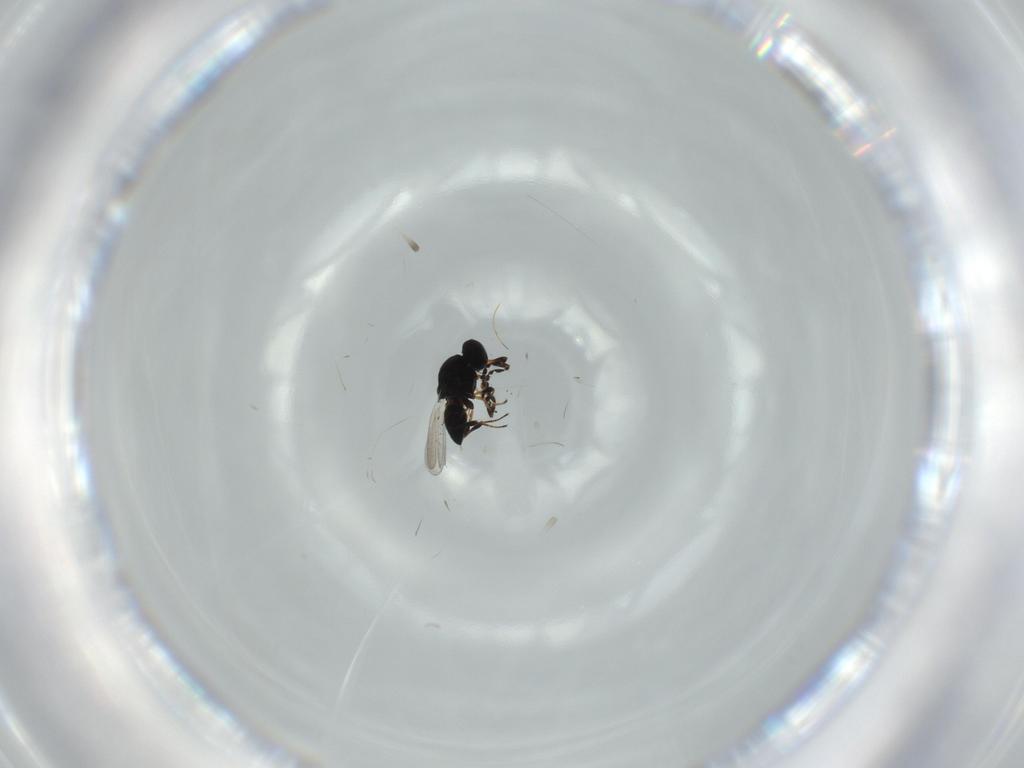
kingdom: Animalia
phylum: Arthropoda
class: Insecta
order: Hymenoptera
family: Platygastridae
